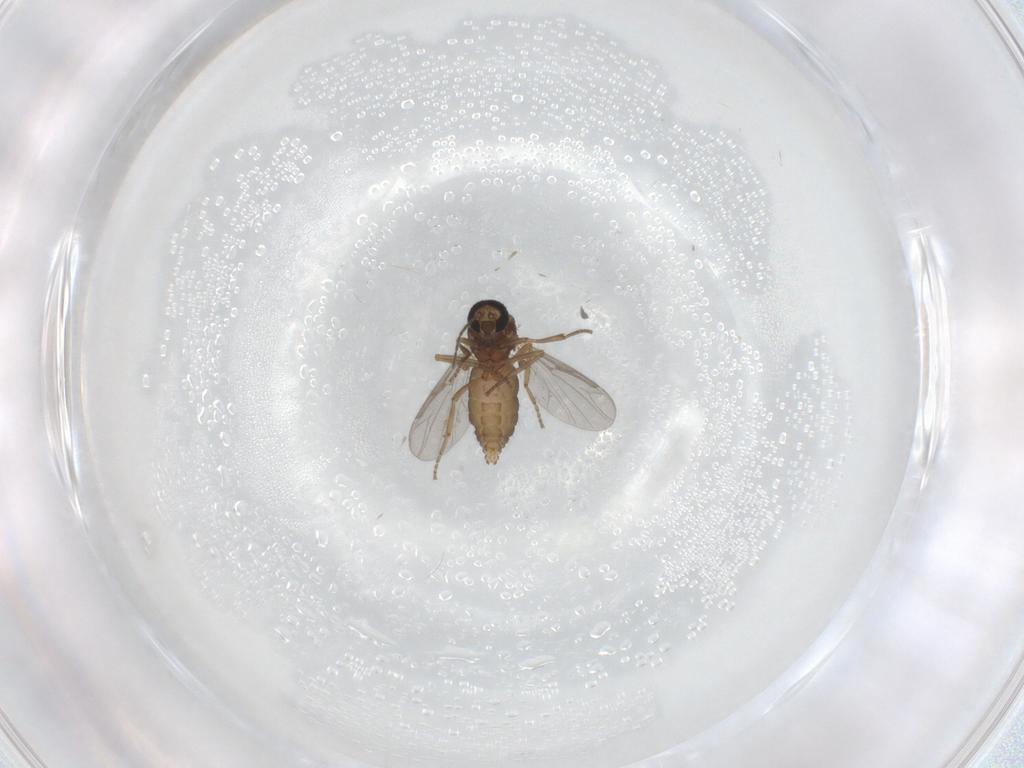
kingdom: Animalia
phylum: Arthropoda
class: Insecta
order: Diptera
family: Ceratopogonidae
